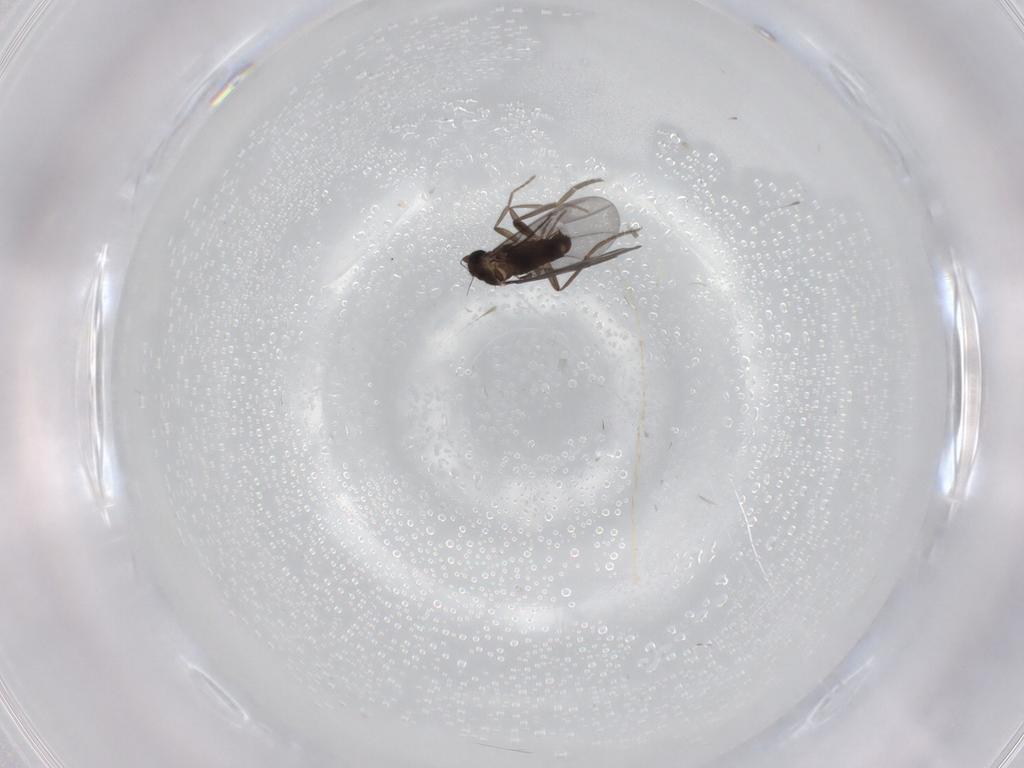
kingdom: Animalia
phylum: Arthropoda
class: Insecta
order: Diptera
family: Phoridae
